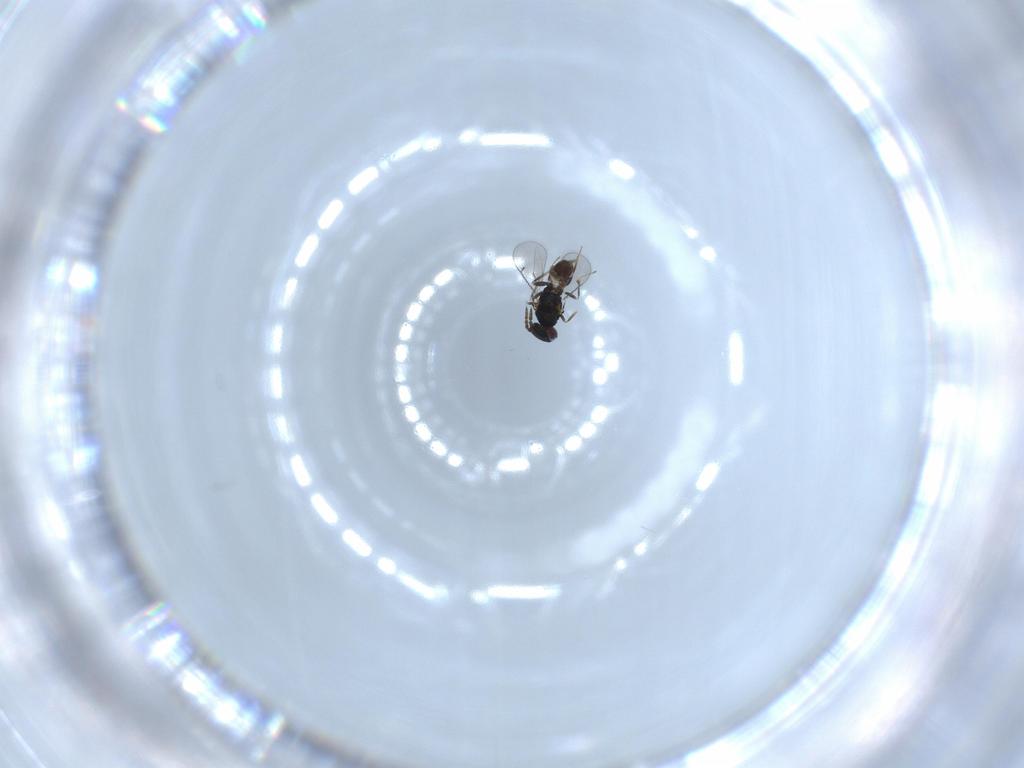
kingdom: Animalia
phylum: Arthropoda
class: Insecta
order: Hymenoptera
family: Eulophidae
